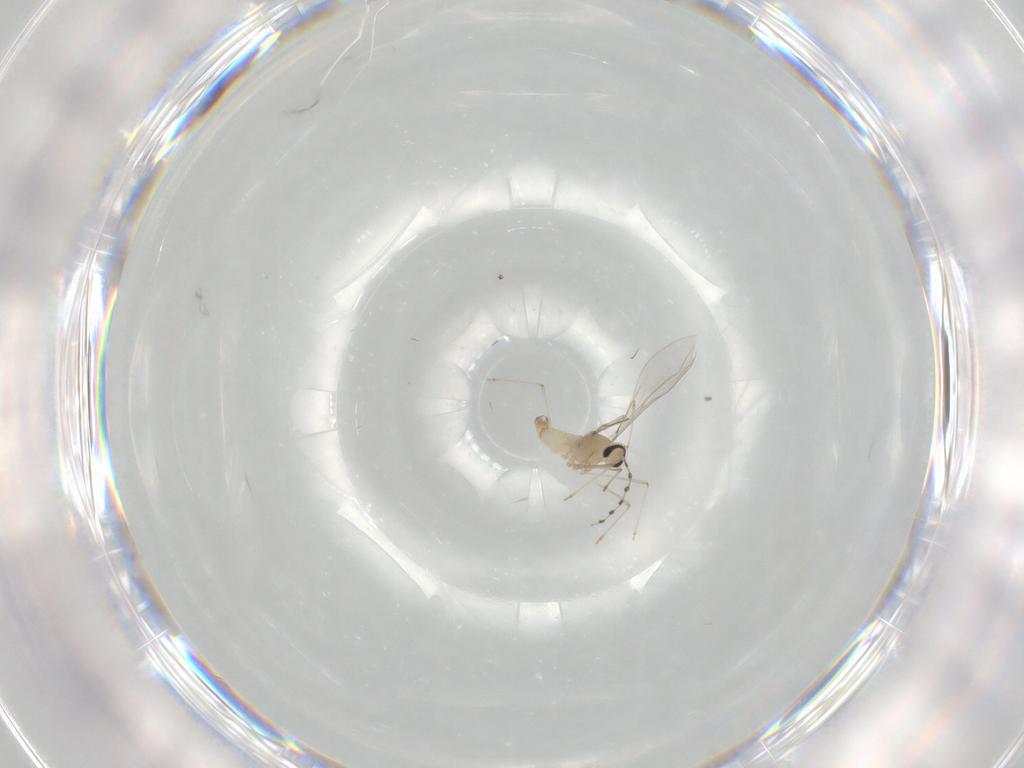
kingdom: Animalia
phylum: Arthropoda
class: Insecta
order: Diptera
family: Cecidomyiidae
